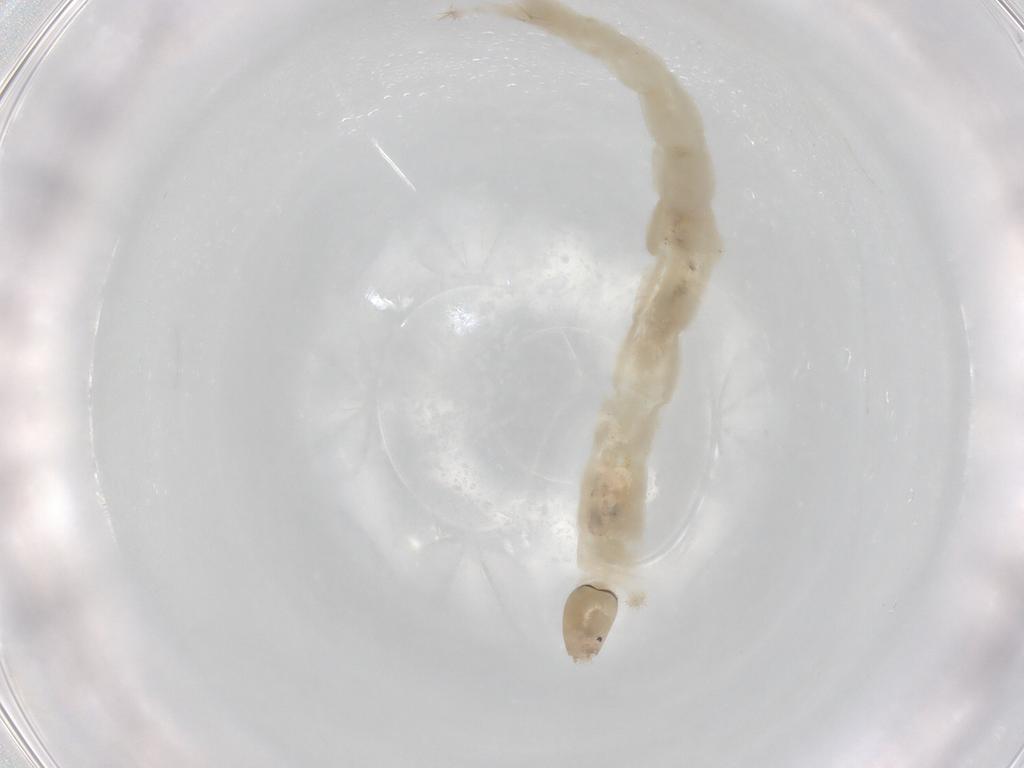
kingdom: Animalia
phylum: Arthropoda
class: Insecta
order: Diptera
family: Chironomidae
